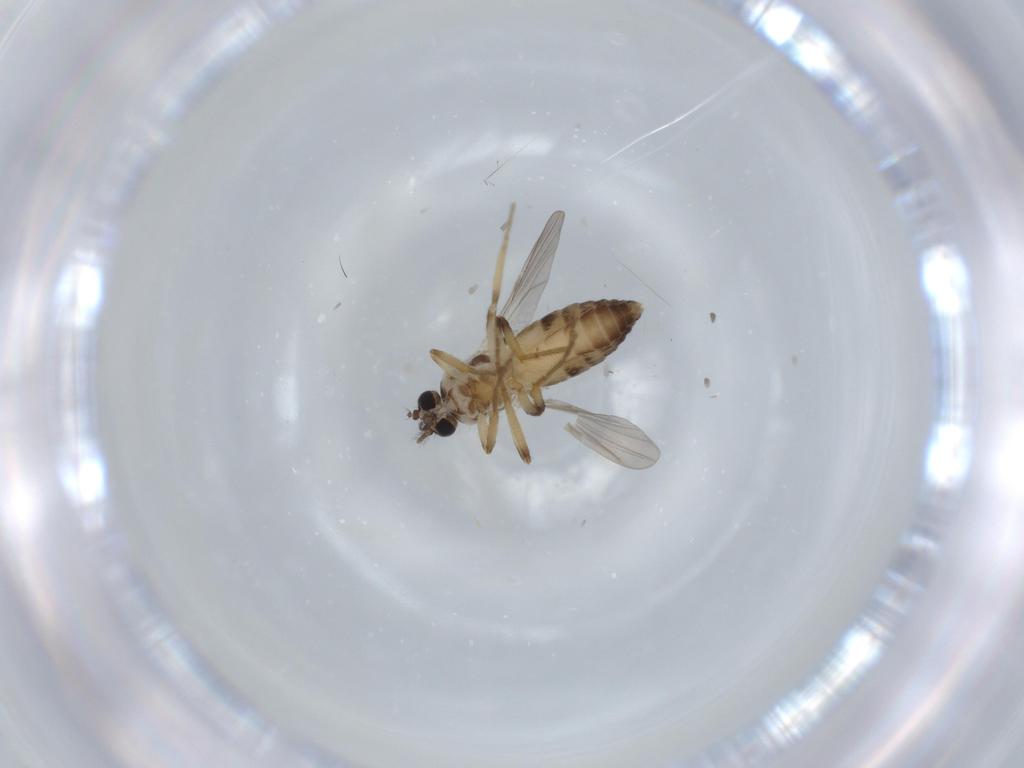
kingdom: Animalia
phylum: Arthropoda
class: Insecta
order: Diptera
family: Ceratopogonidae
